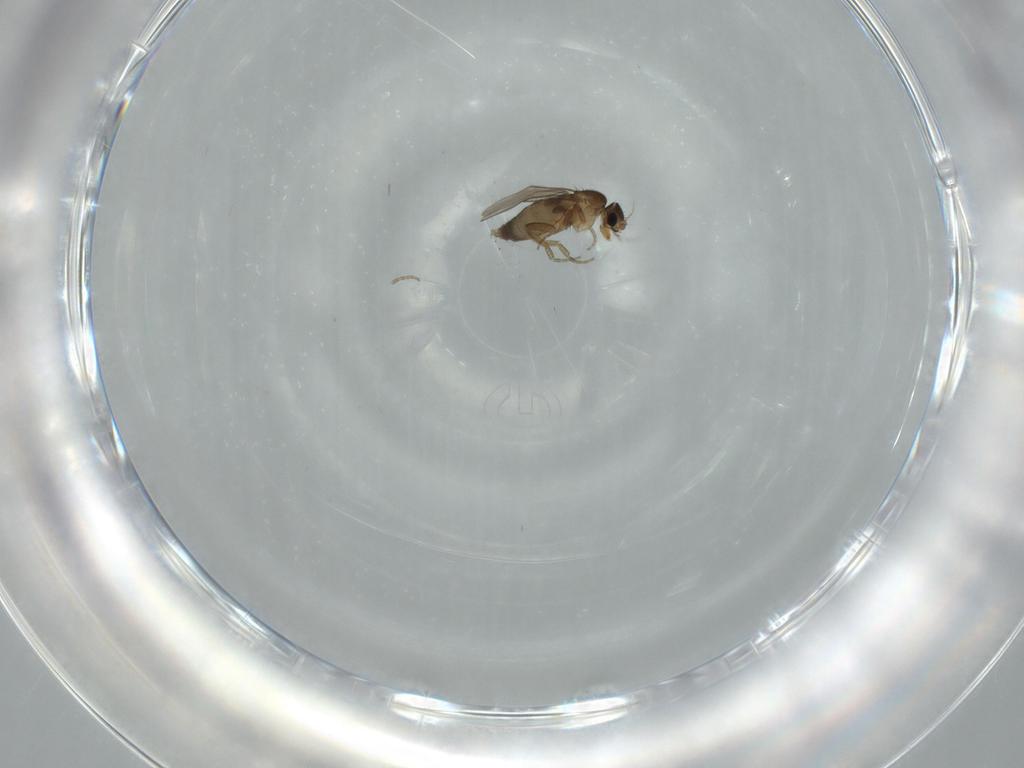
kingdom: Animalia
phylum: Arthropoda
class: Insecta
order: Diptera
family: Phoridae
